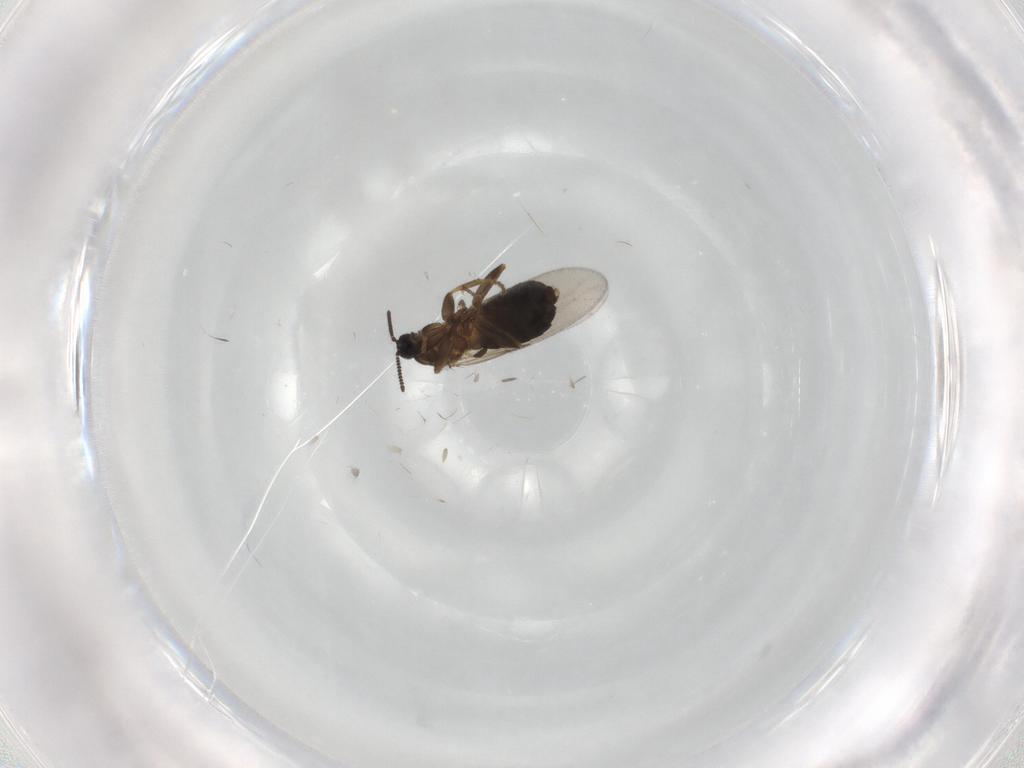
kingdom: Animalia
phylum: Arthropoda
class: Insecta
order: Diptera
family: Scatopsidae
